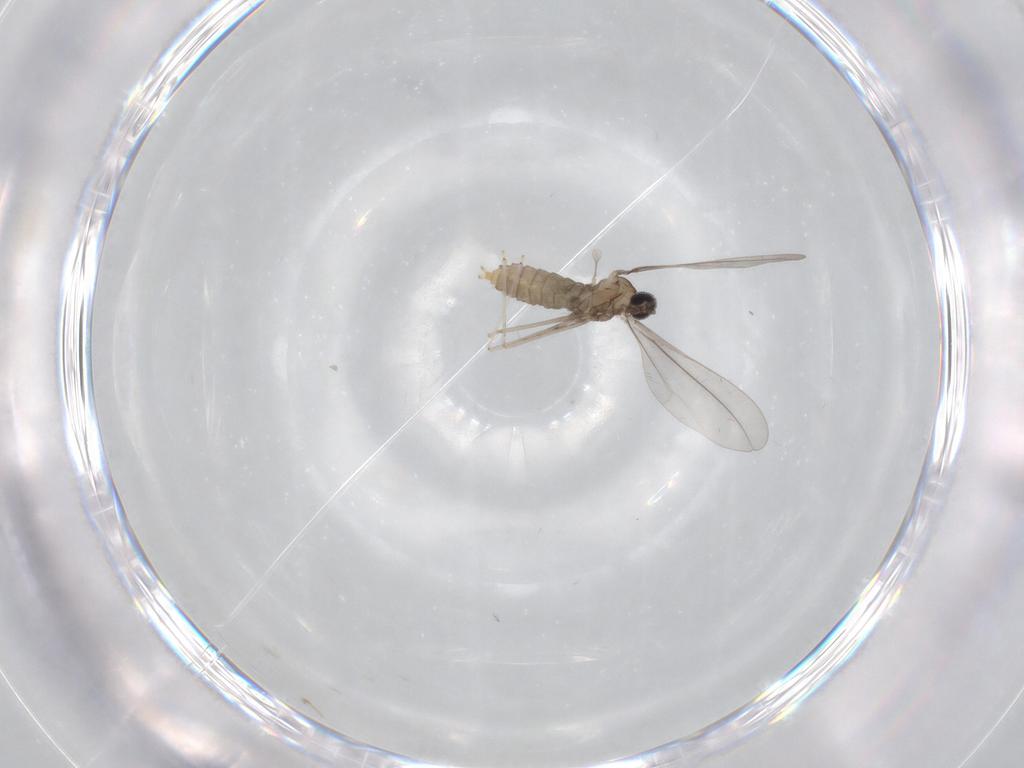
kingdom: Animalia
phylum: Arthropoda
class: Insecta
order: Diptera
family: Cecidomyiidae
